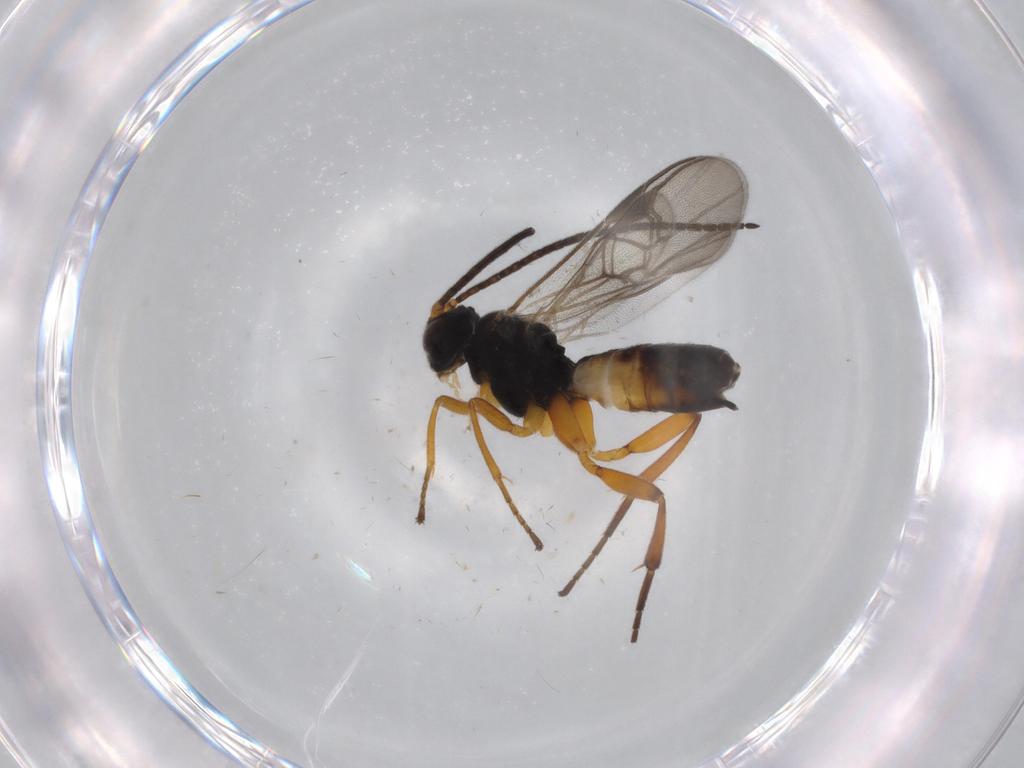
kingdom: Animalia
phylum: Arthropoda
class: Insecta
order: Hymenoptera
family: Braconidae
